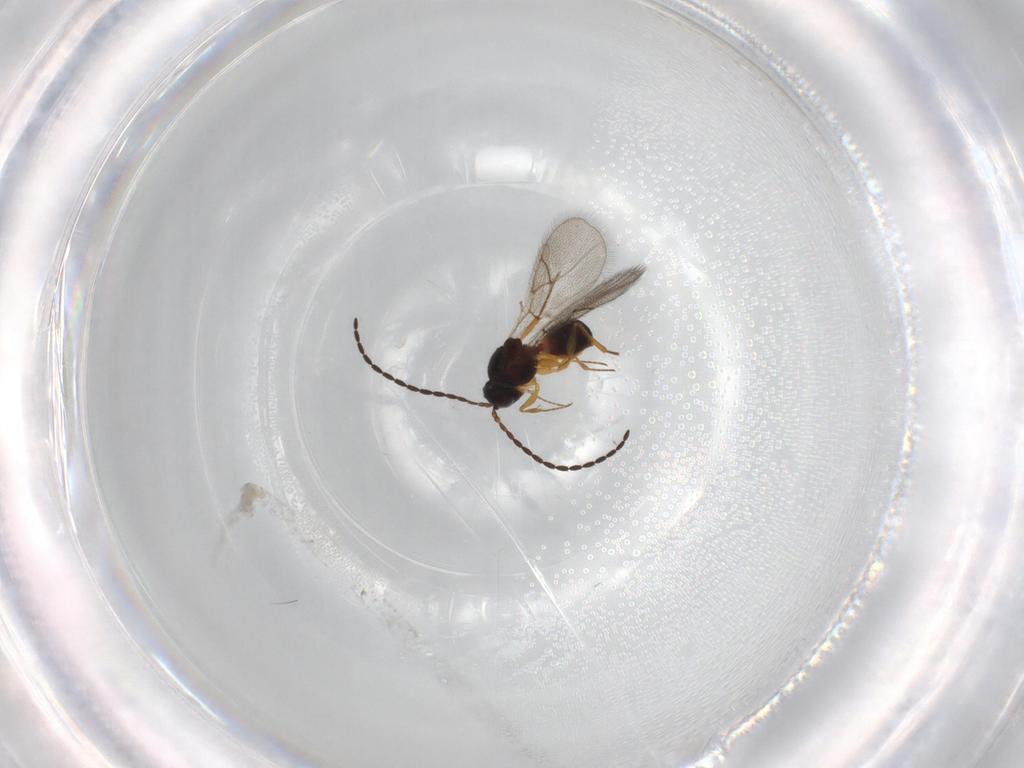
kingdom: Animalia
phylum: Arthropoda
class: Insecta
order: Hymenoptera
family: Figitidae
